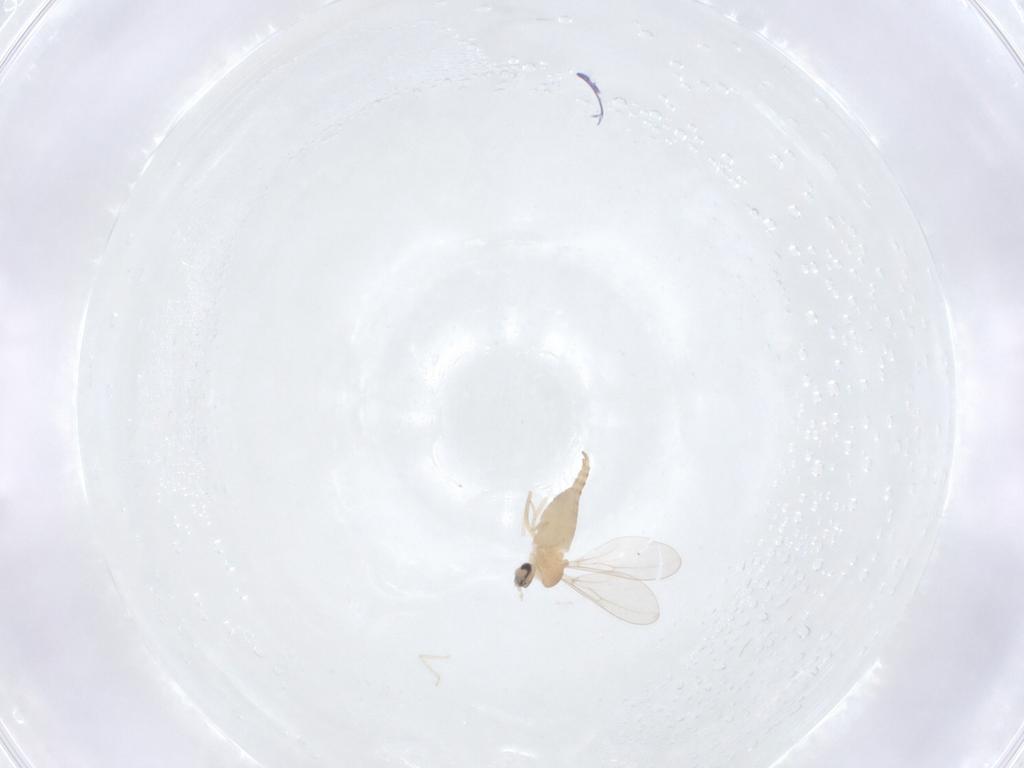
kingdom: Animalia
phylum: Arthropoda
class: Insecta
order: Diptera
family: Cecidomyiidae
